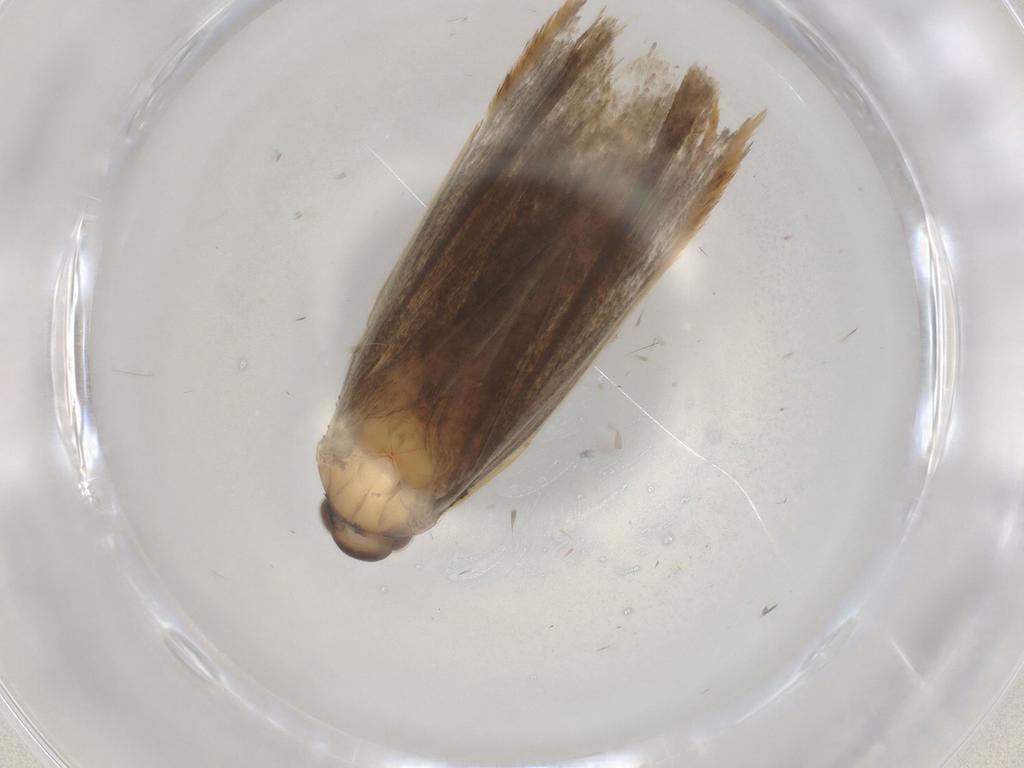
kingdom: Animalia
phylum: Arthropoda
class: Insecta
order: Lepidoptera
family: Lecithoceridae
